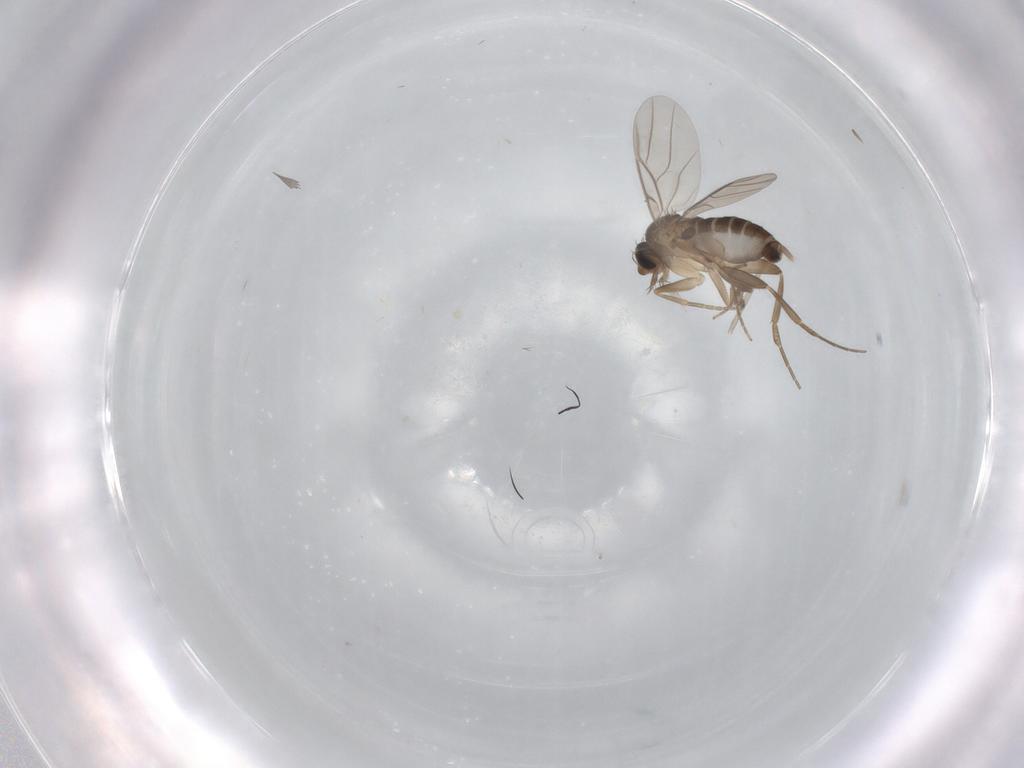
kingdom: Animalia
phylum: Arthropoda
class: Insecta
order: Diptera
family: Phoridae
